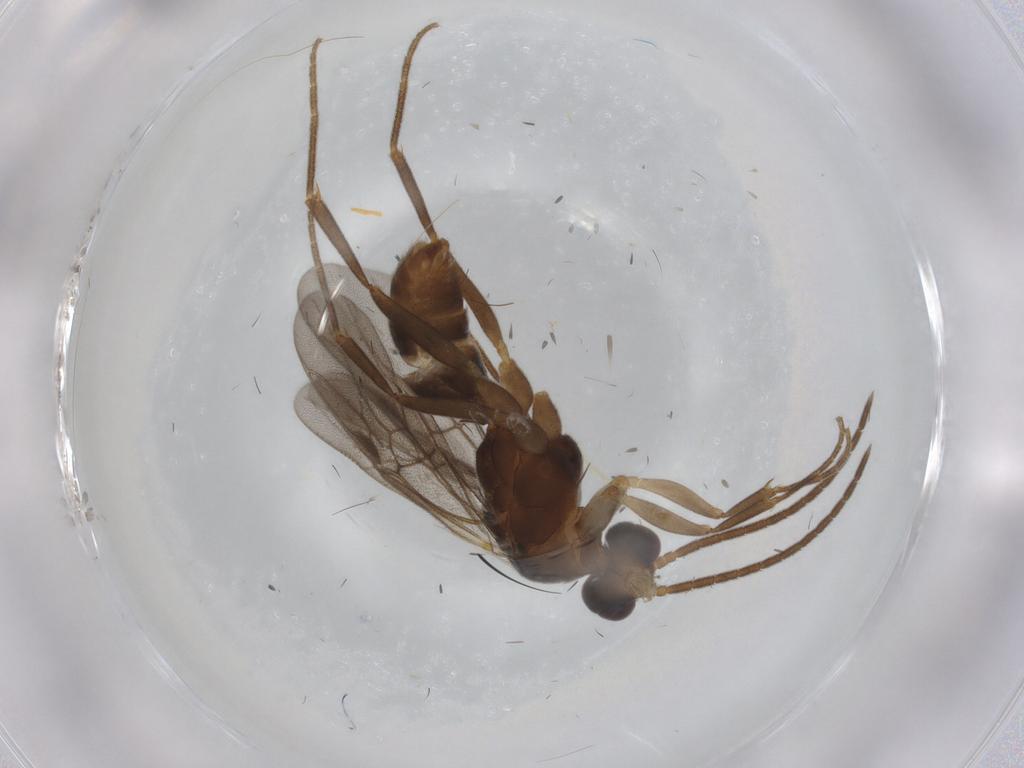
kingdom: Animalia
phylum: Arthropoda
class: Insecta
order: Hymenoptera
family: Formicidae
